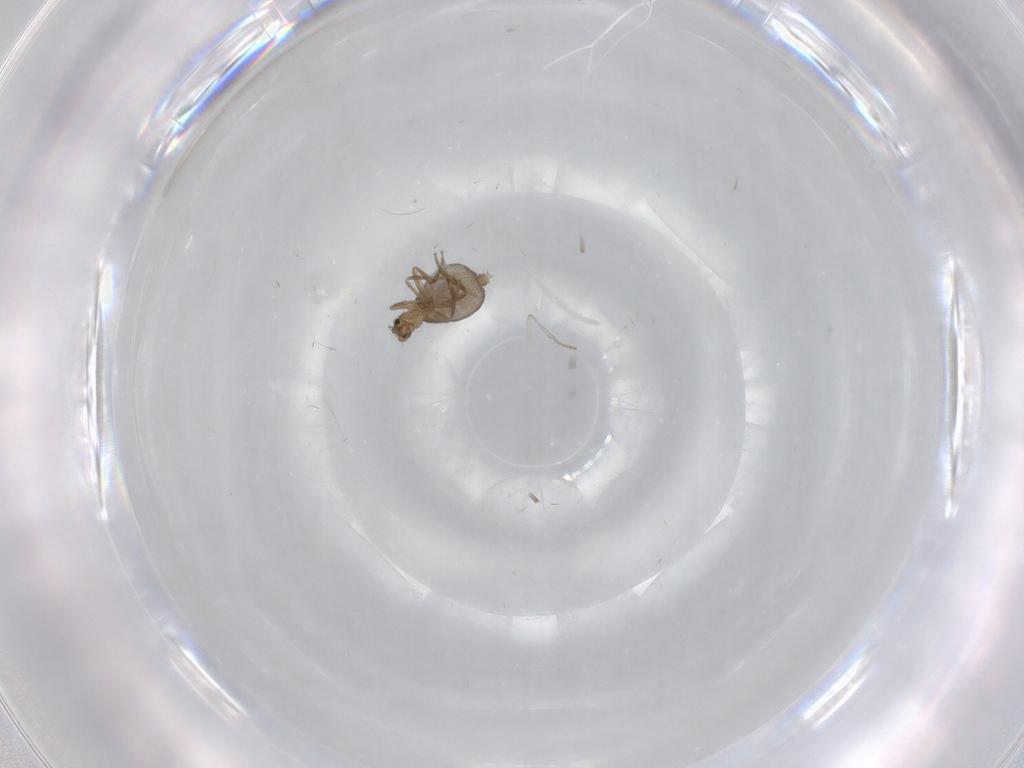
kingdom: Animalia
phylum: Arthropoda
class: Insecta
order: Diptera
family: Psychodidae
